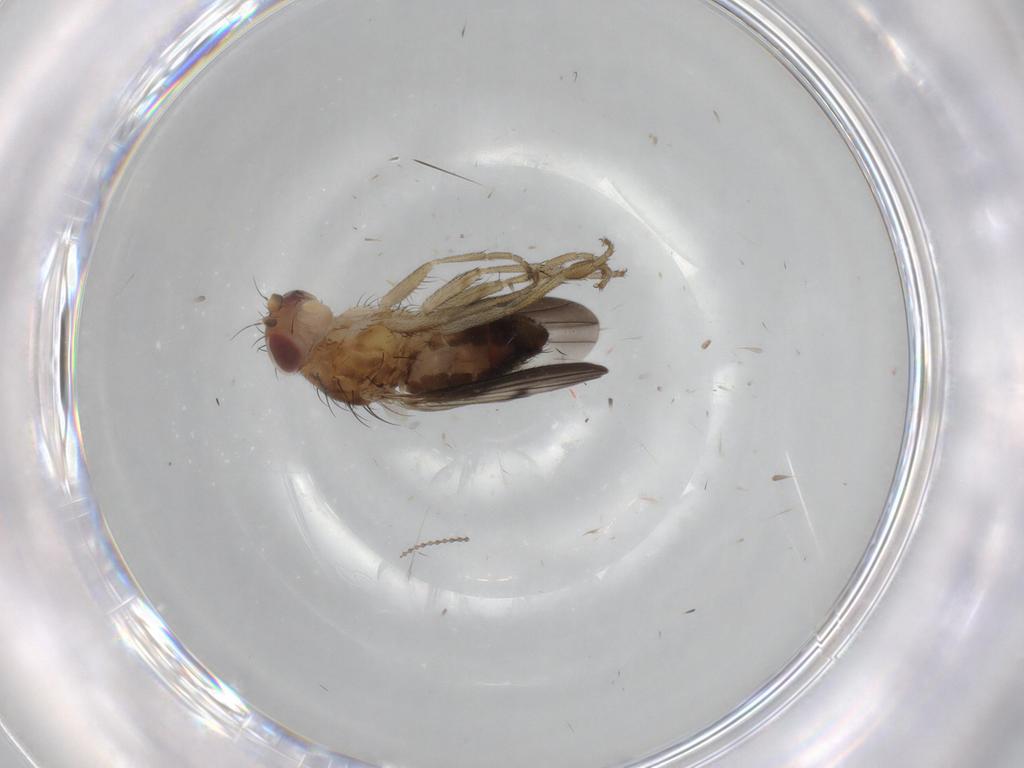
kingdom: Animalia
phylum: Arthropoda
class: Insecta
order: Diptera
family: Heleomyzidae
